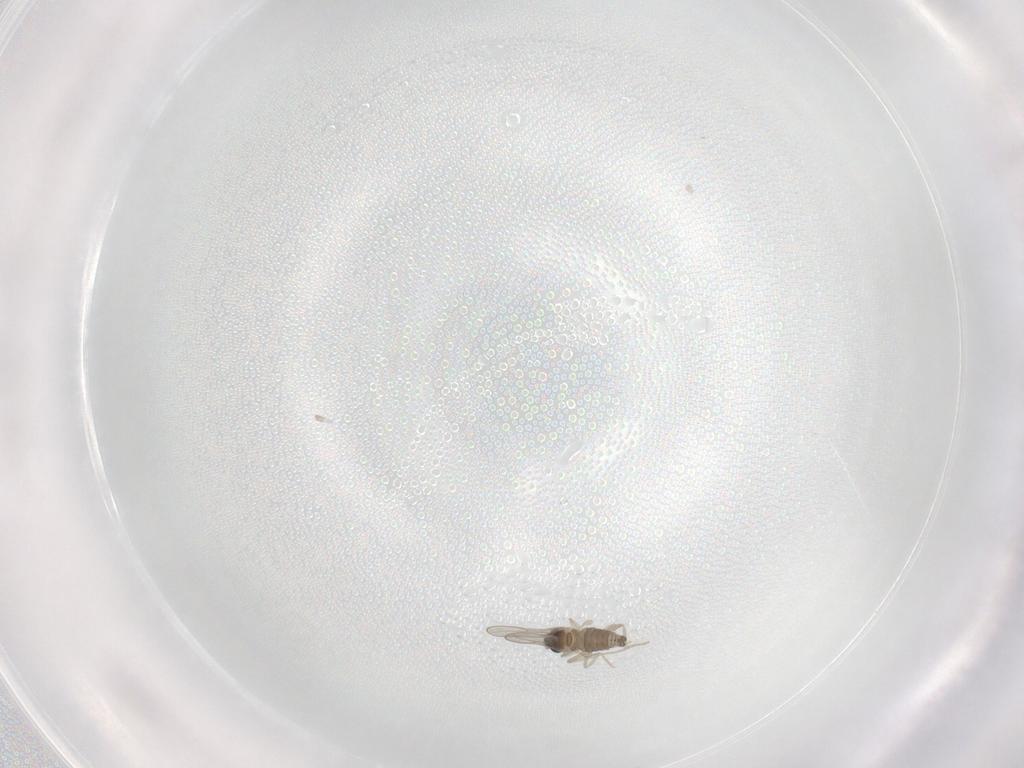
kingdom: Animalia
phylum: Arthropoda
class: Insecta
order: Diptera
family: Cecidomyiidae
